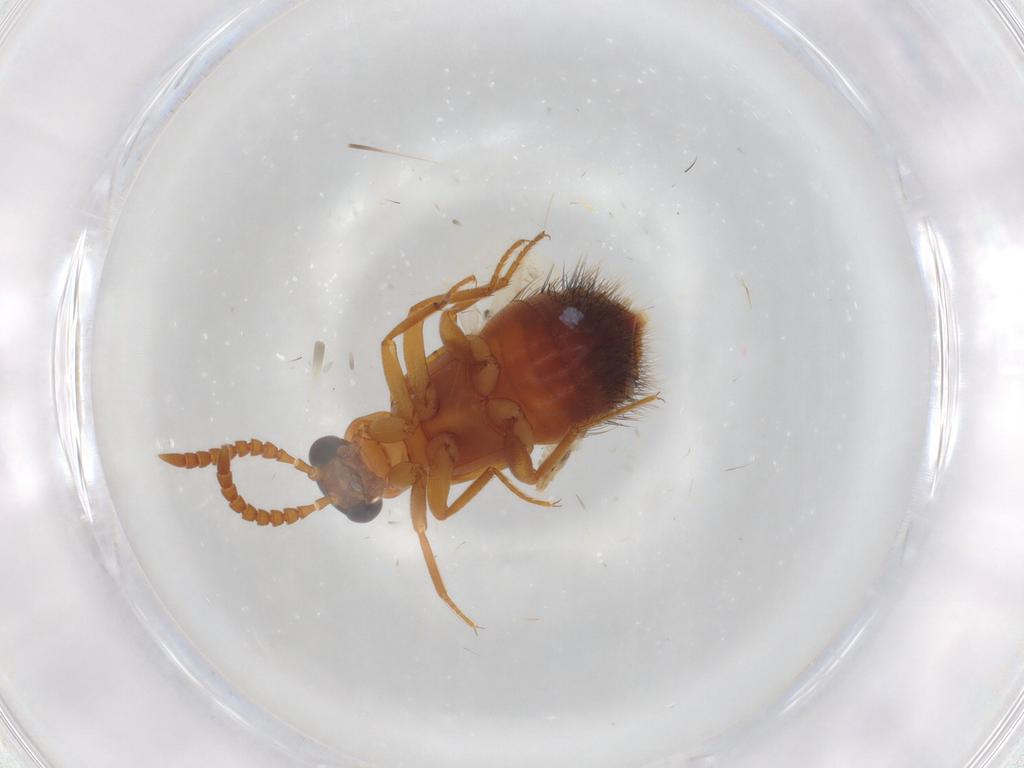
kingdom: Animalia
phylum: Arthropoda
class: Insecta
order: Coleoptera
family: Staphylinidae
